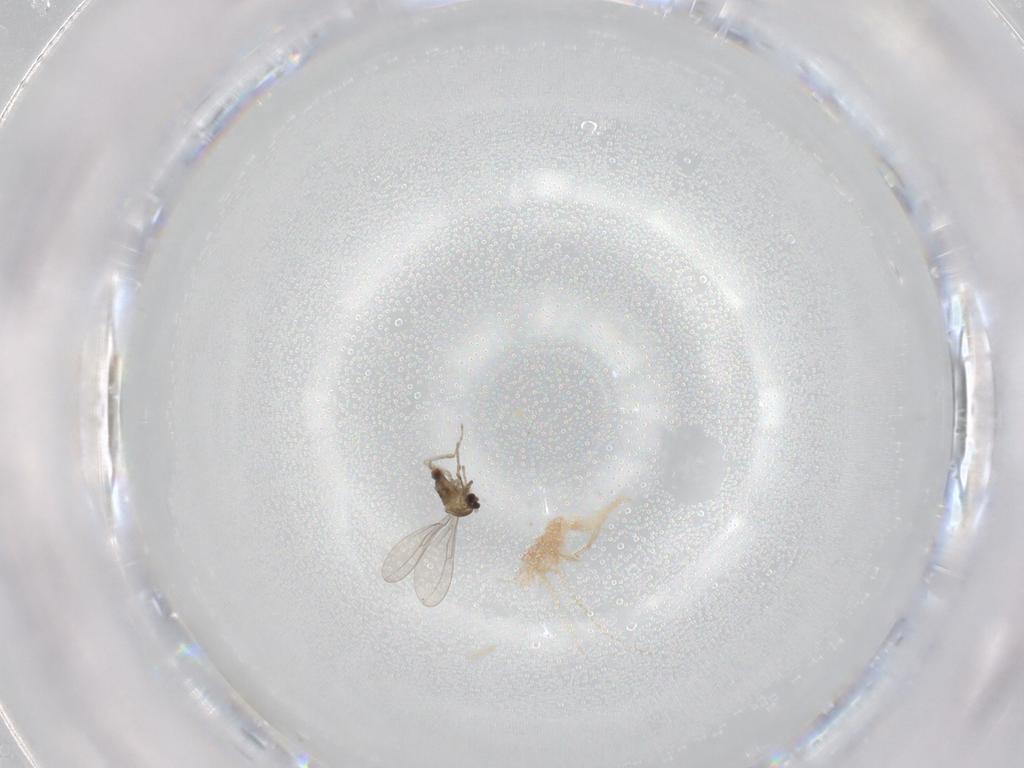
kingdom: Animalia
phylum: Arthropoda
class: Insecta
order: Diptera
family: Cecidomyiidae
